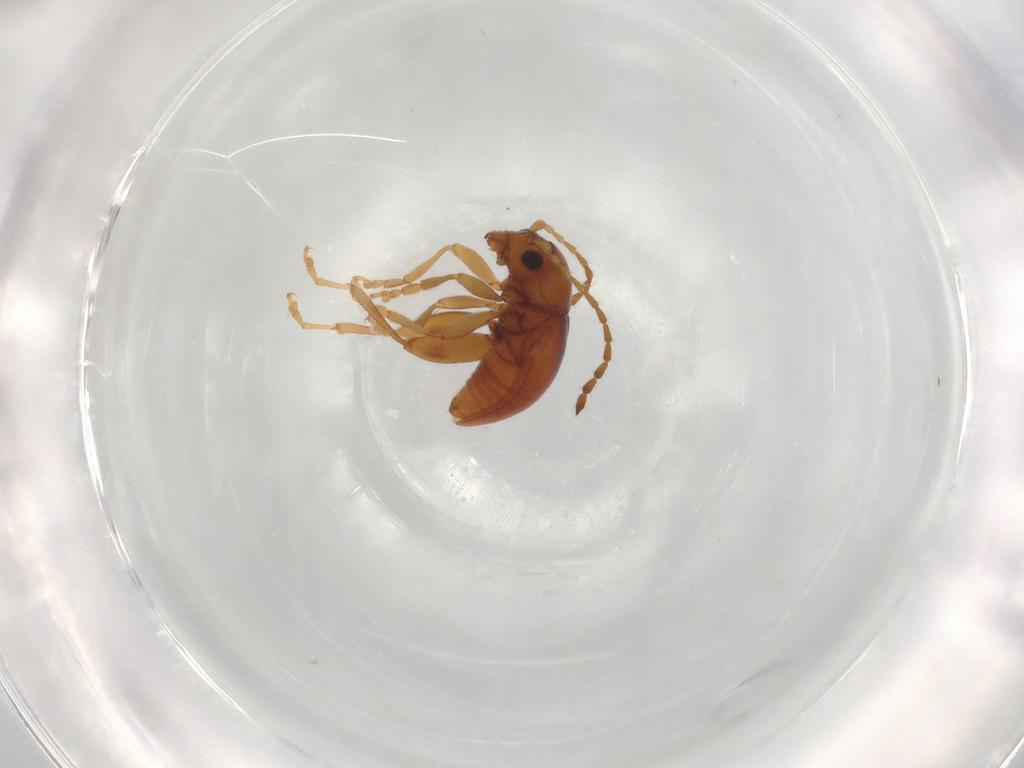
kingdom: Animalia
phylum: Arthropoda
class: Insecta
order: Coleoptera
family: Chrysomelidae
